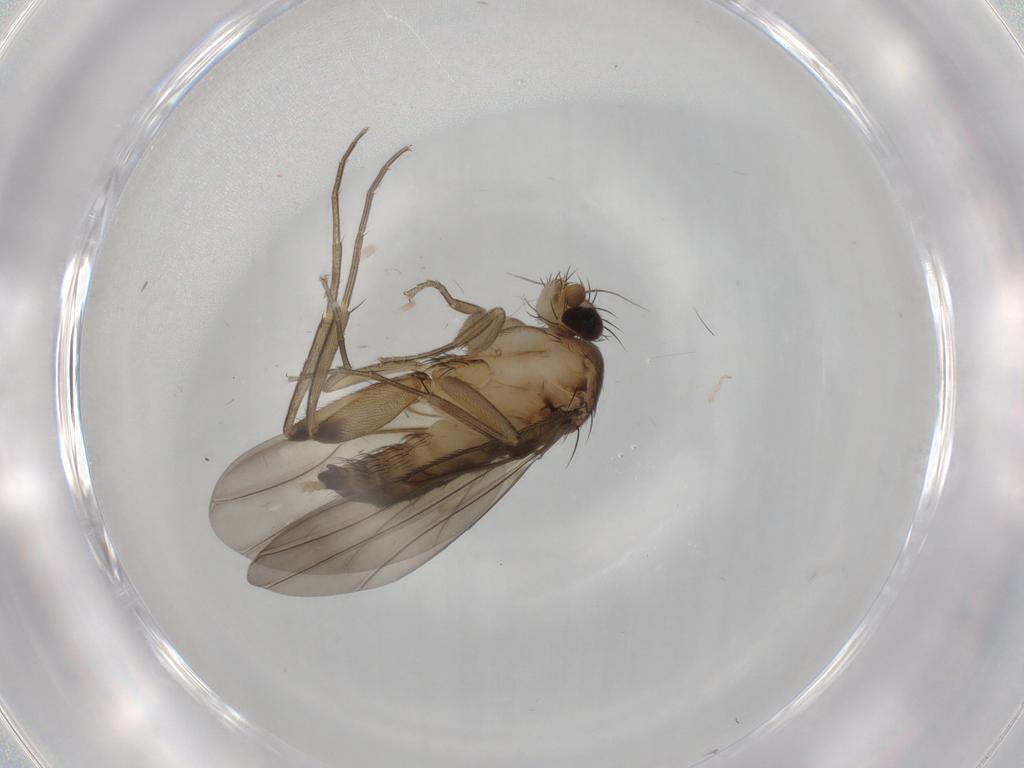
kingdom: Animalia
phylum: Arthropoda
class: Insecta
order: Diptera
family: Phoridae
